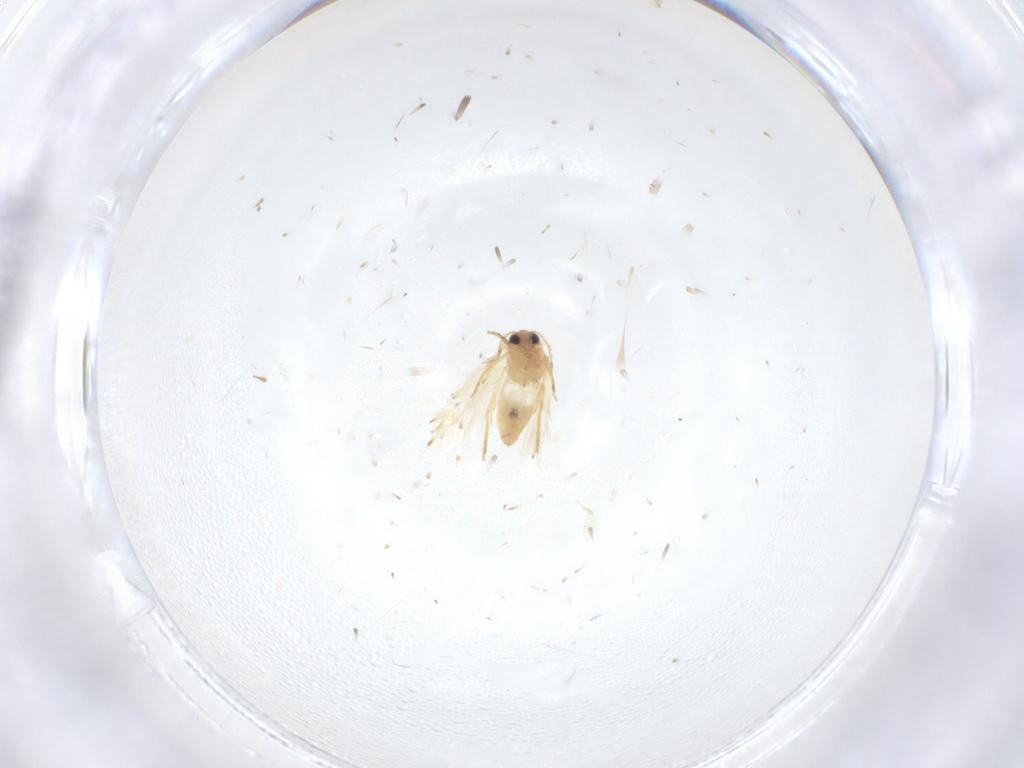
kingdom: Animalia
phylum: Arthropoda
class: Insecta
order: Lepidoptera
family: Crambidae
